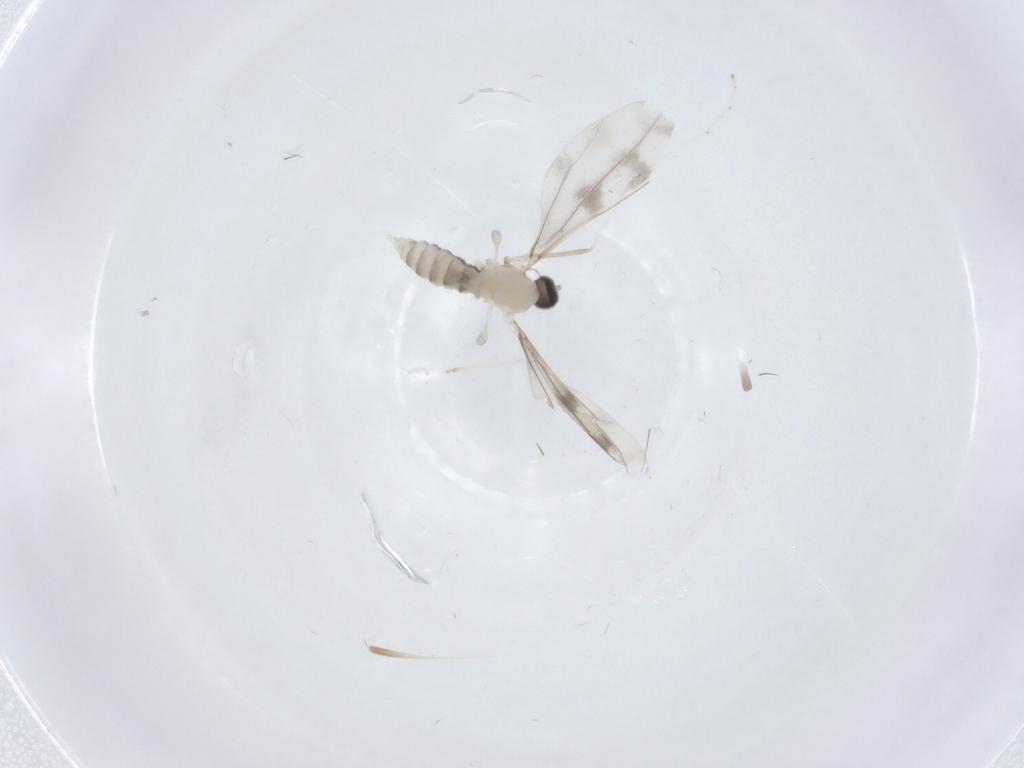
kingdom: Animalia
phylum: Arthropoda
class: Insecta
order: Diptera
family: Cecidomyiidae
